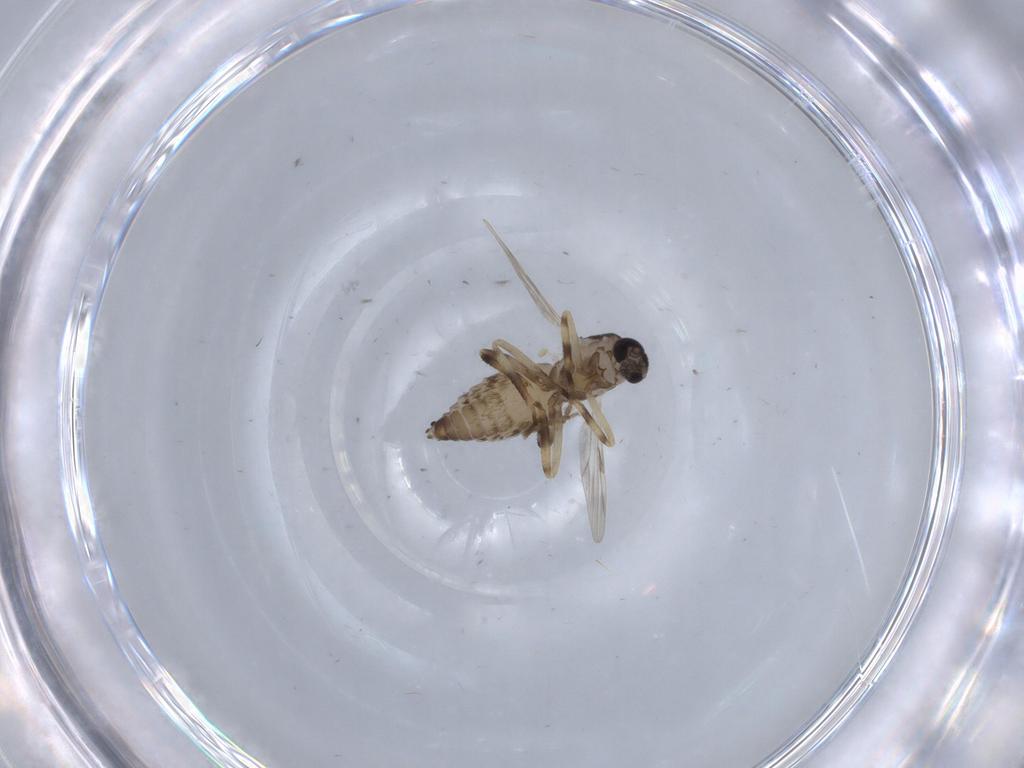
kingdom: Animalia
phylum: Arthropoda
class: Insecta
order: Diptera
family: Ceratopogonidae
